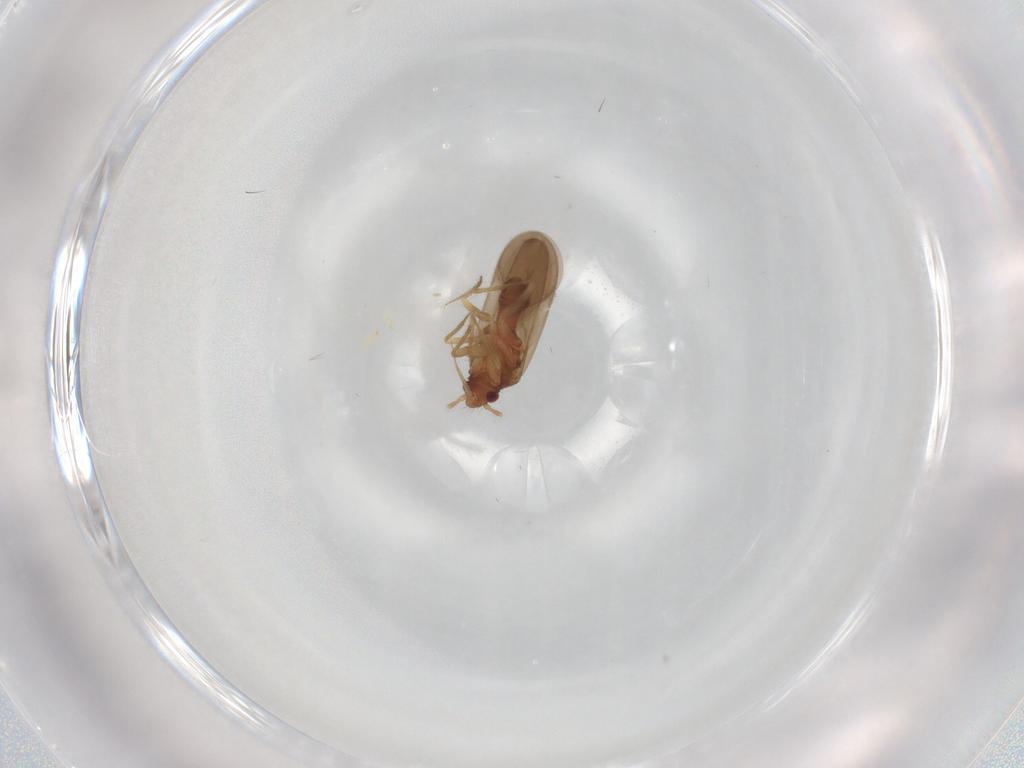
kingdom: Animalia
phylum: Arthropoda
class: Insecta
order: Hemiptera
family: Ceratocombidae
